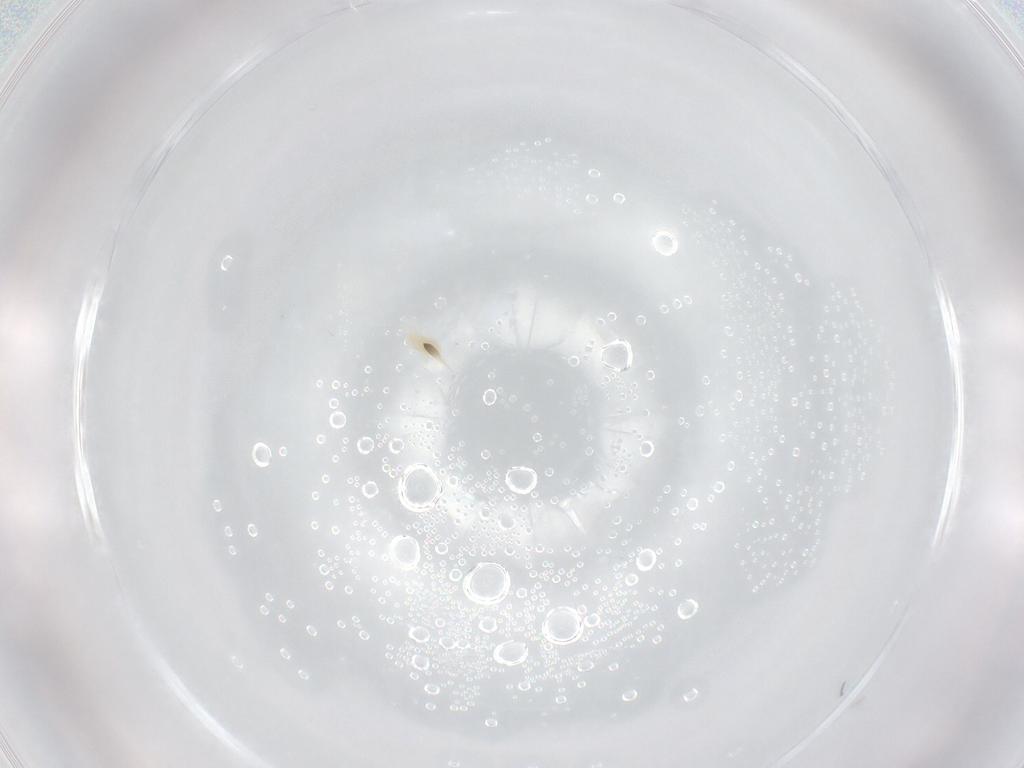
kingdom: Animalia
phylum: Arthropoda
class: Arachnida
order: Trombidiformes
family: Eupodidae
